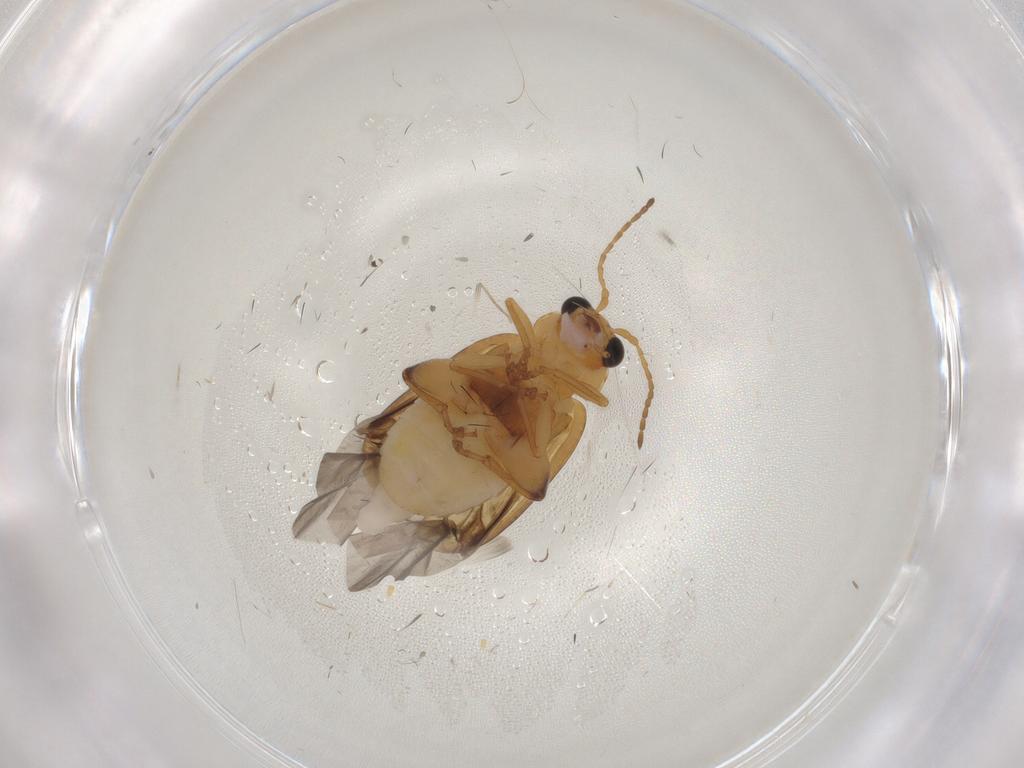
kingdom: Animalia
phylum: Arthropoda
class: Insecta
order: Coleoptera
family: Chrysomelidae
